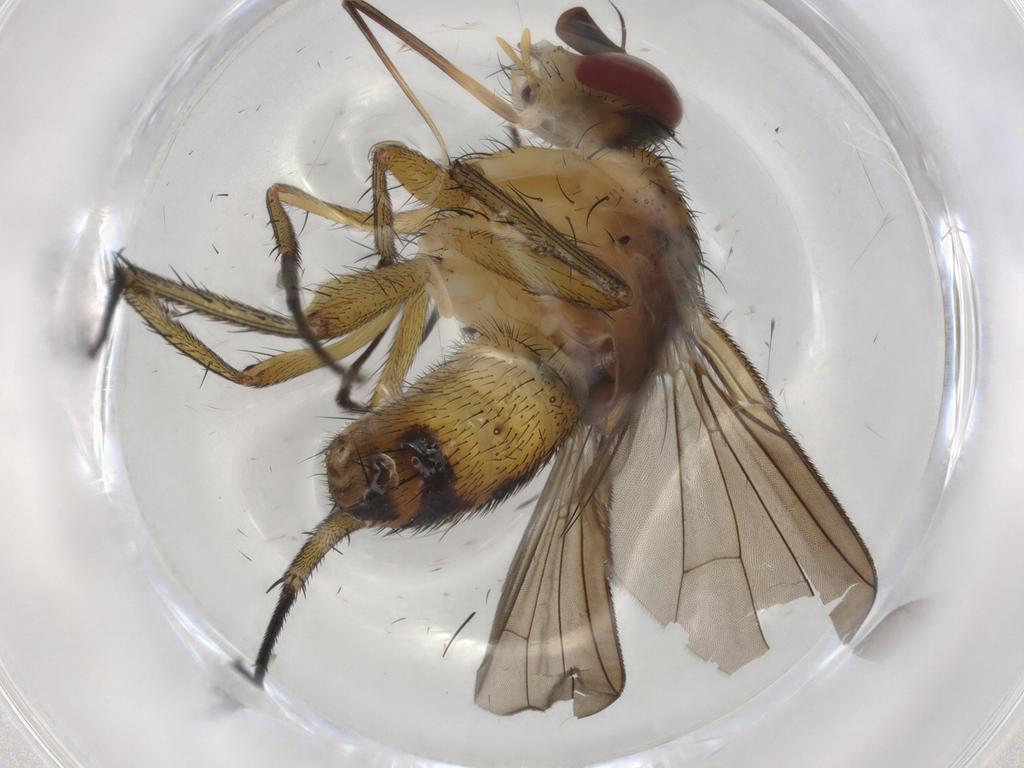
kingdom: Animalia
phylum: Arthropoda
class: Insecta
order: Diptera
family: Tachinidae
